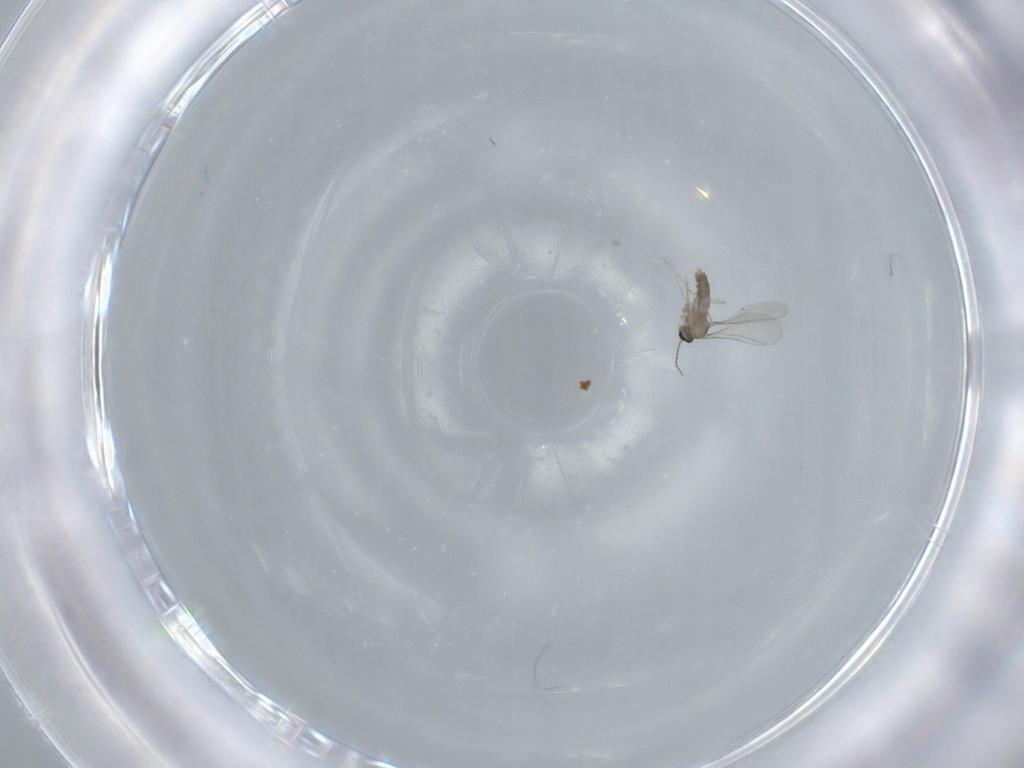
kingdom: Animalia
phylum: Arthropoda
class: Insecta
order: Diptera
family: Cecidomyiidae
